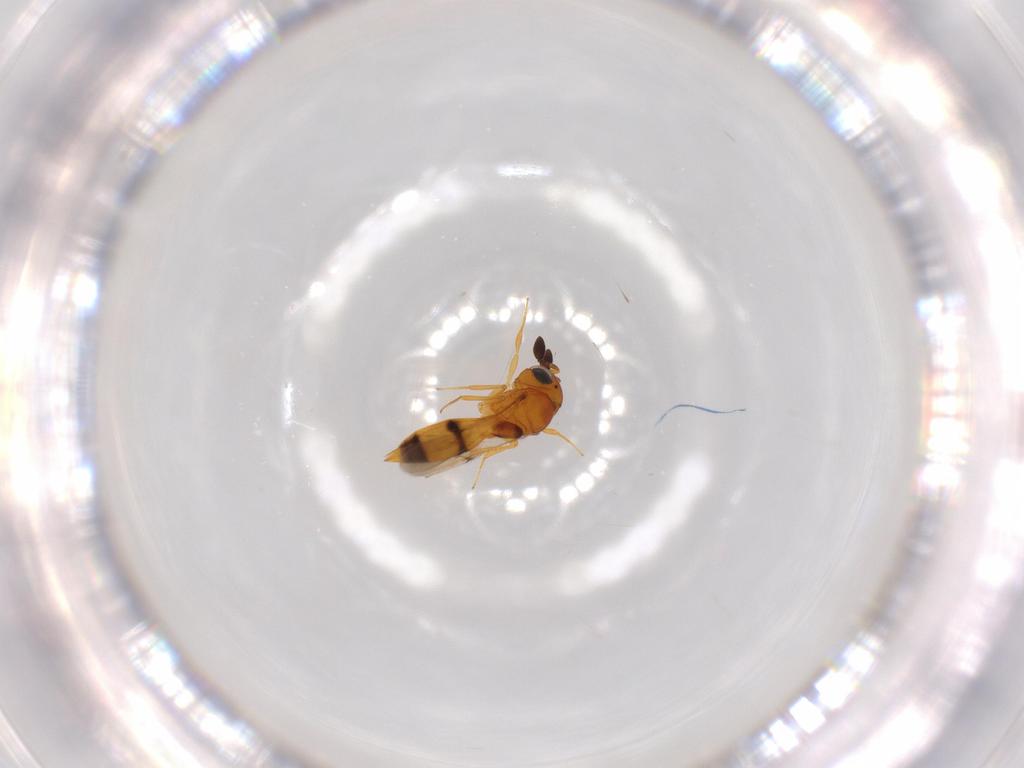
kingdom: Animalia
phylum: Arthropoda
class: Insecta
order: Hymenoptera
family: Scelionidae
